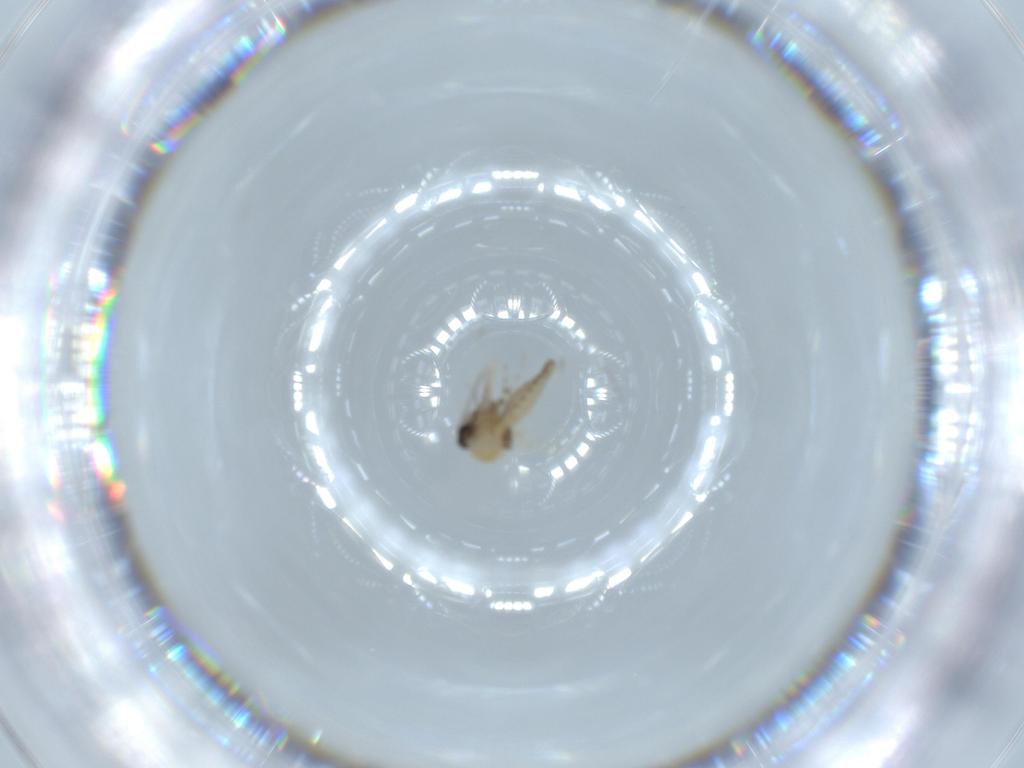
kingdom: Animalia
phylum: Arthropoda
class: Insecta
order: Diptera
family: Ceratopogonidae
